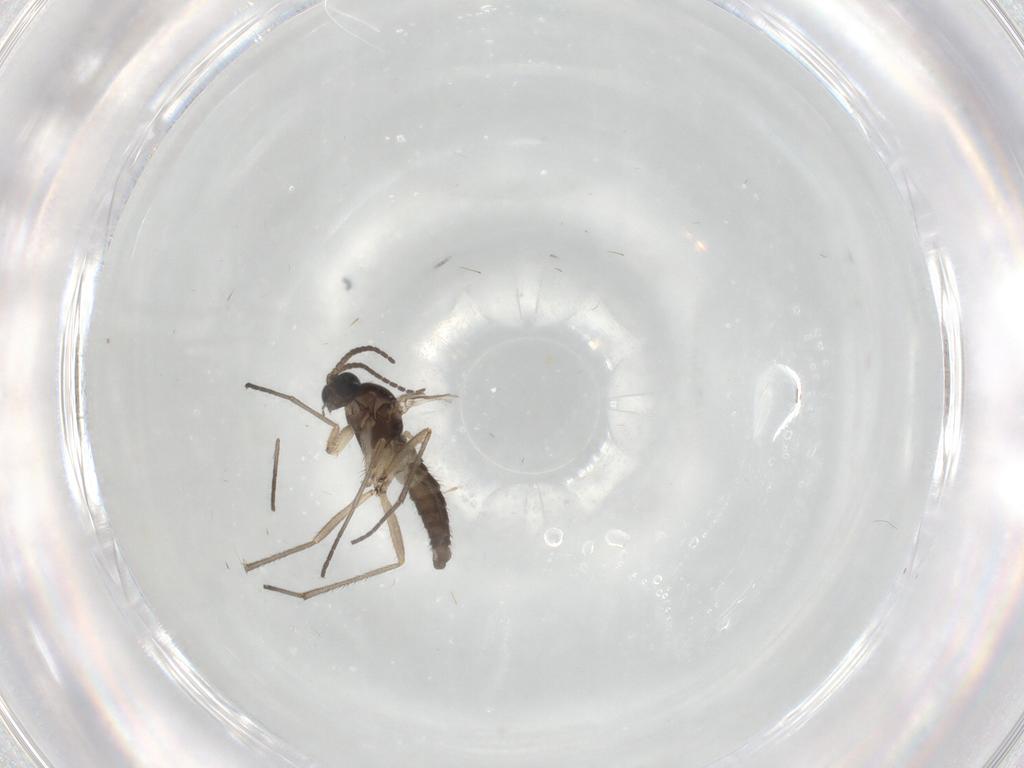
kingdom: Animalia
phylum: Arthropoda
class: Insecta
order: Diptera
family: Sciaridae
